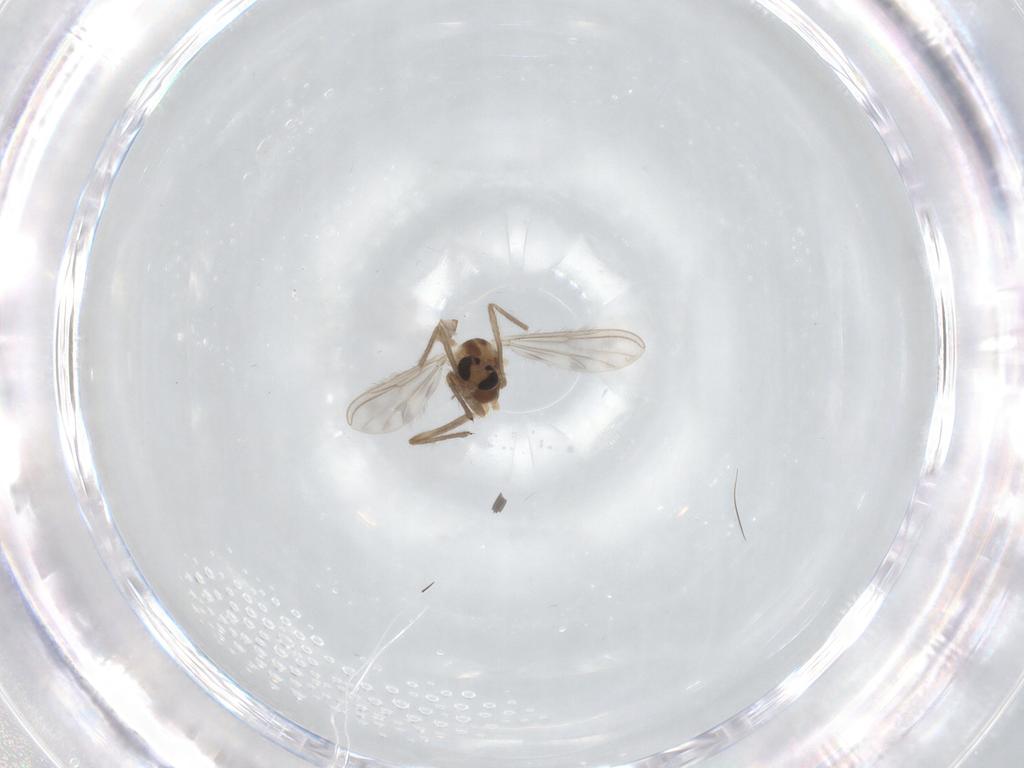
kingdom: Animalia
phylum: Arthropoda
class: Insecta
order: Diptera
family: Chironomidae
